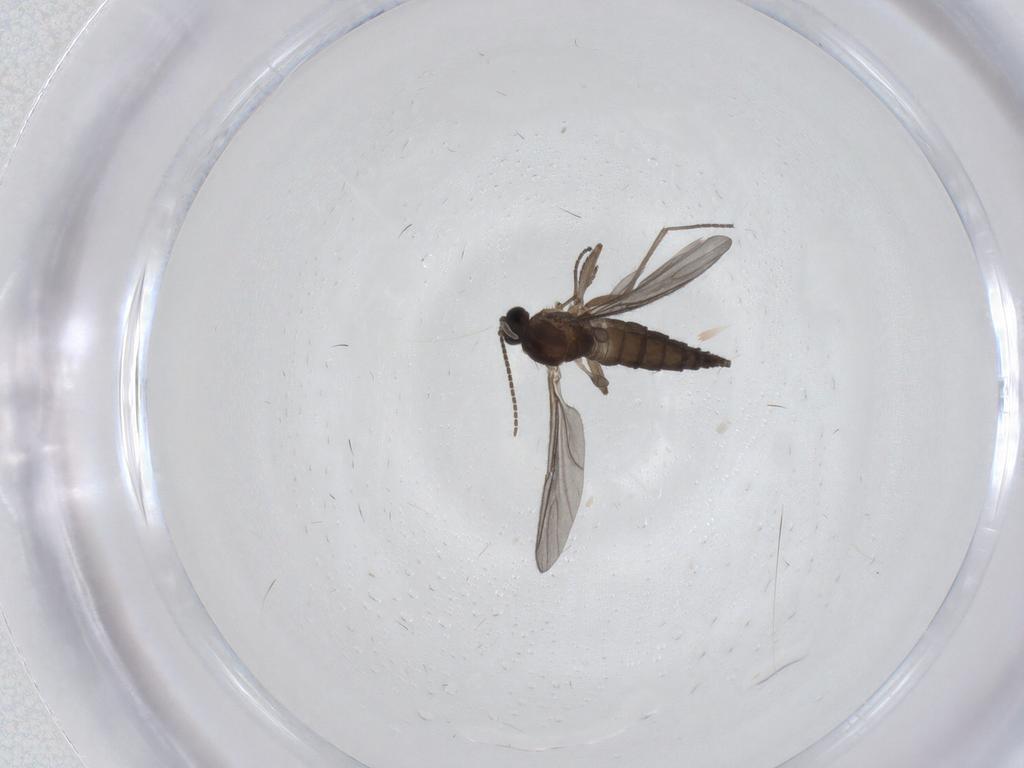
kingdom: Animalia
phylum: Arthropoda
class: Insecta
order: Diptera
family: Sciaridae
